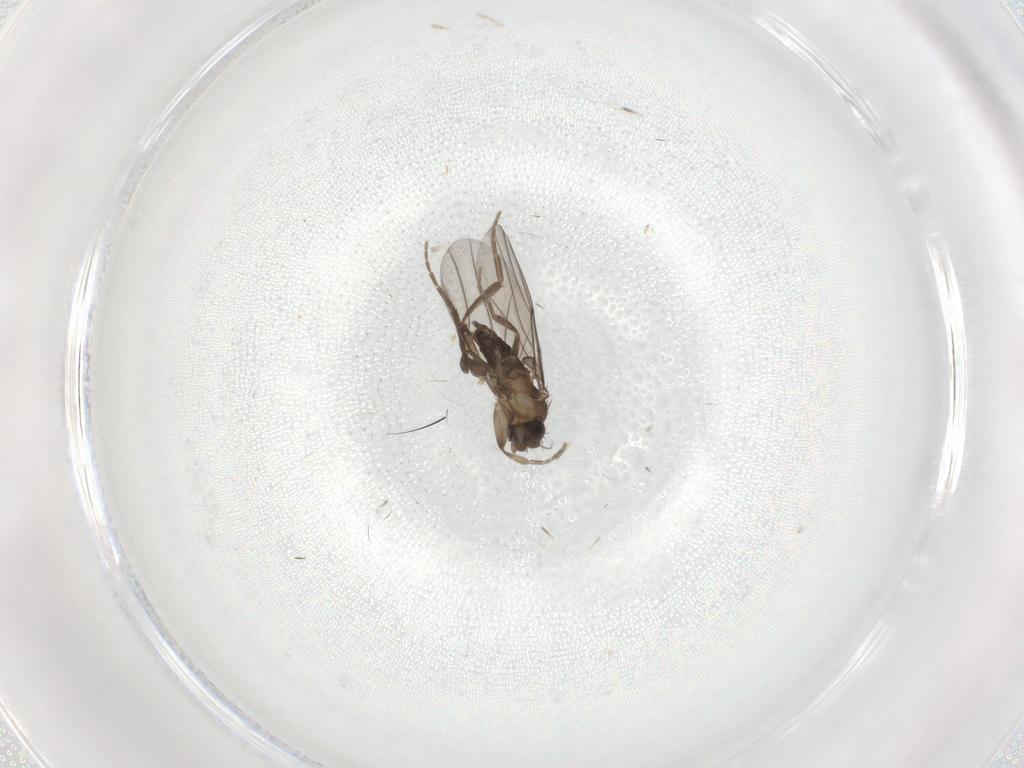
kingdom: Animalia
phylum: Arthropoda
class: Insecta
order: Diptera
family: Phoridae
